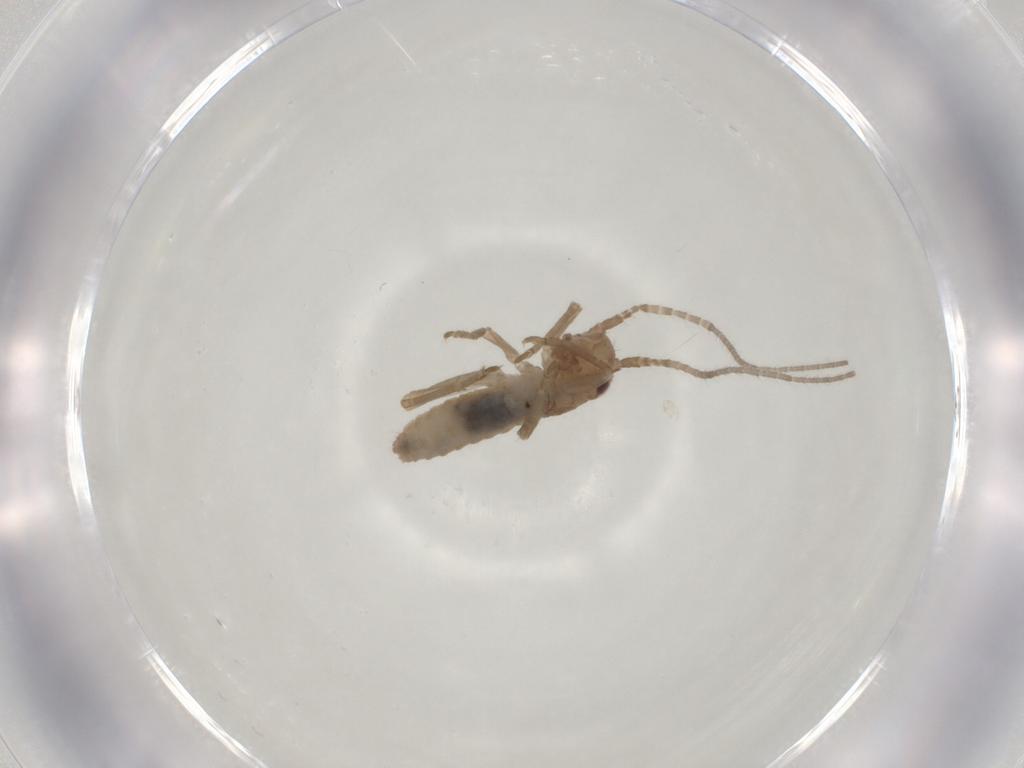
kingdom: Animalia
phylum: Arthropoda
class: Insecta
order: Orthoptera
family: Mogoplistidae
